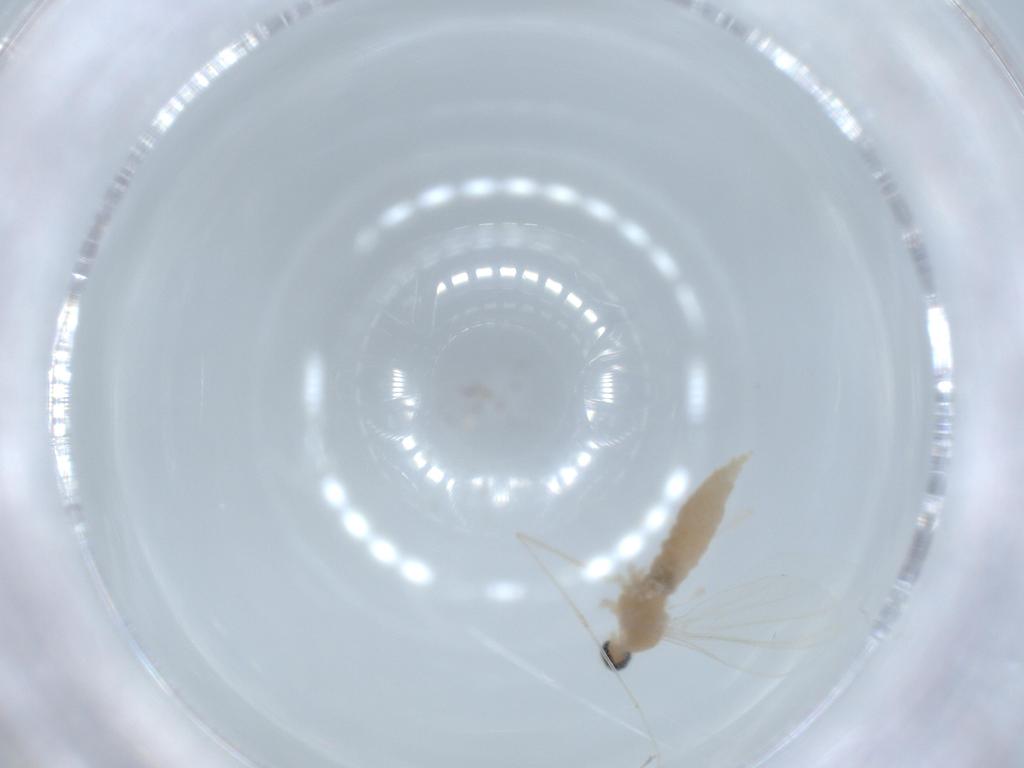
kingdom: Animalia
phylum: Arthropoda
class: Insecta
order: Diptera
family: Cecidomyiidae
